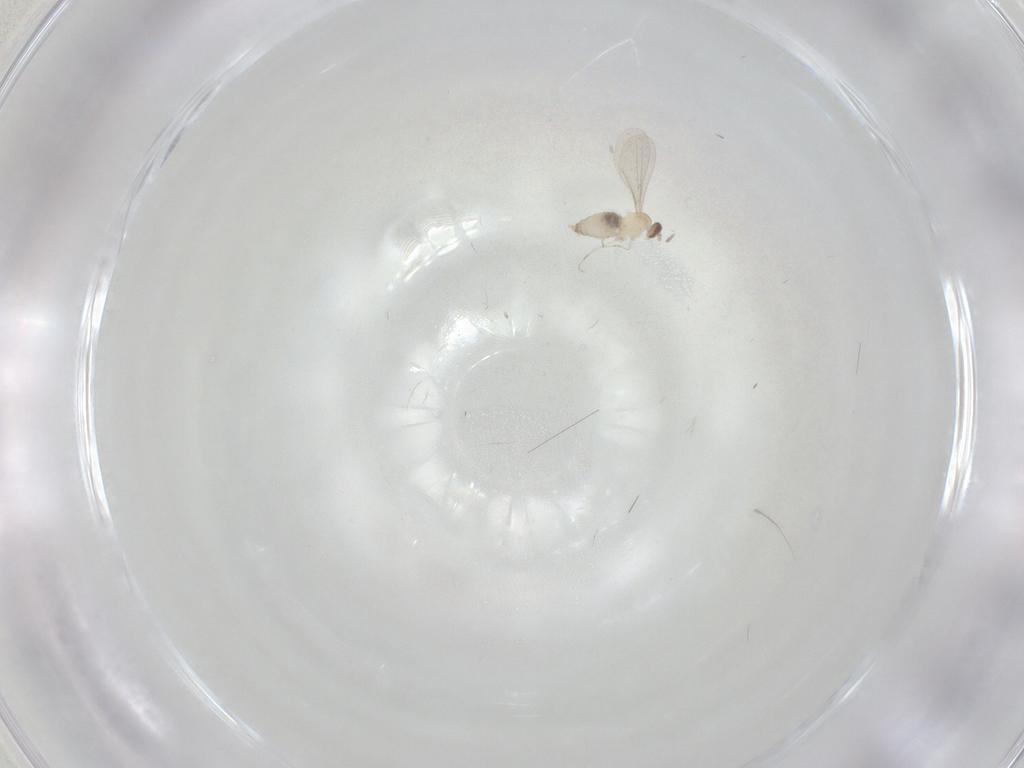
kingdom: Animalia
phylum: Arthropoda
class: Insecta
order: Diptera
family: Cecidomyiidae
